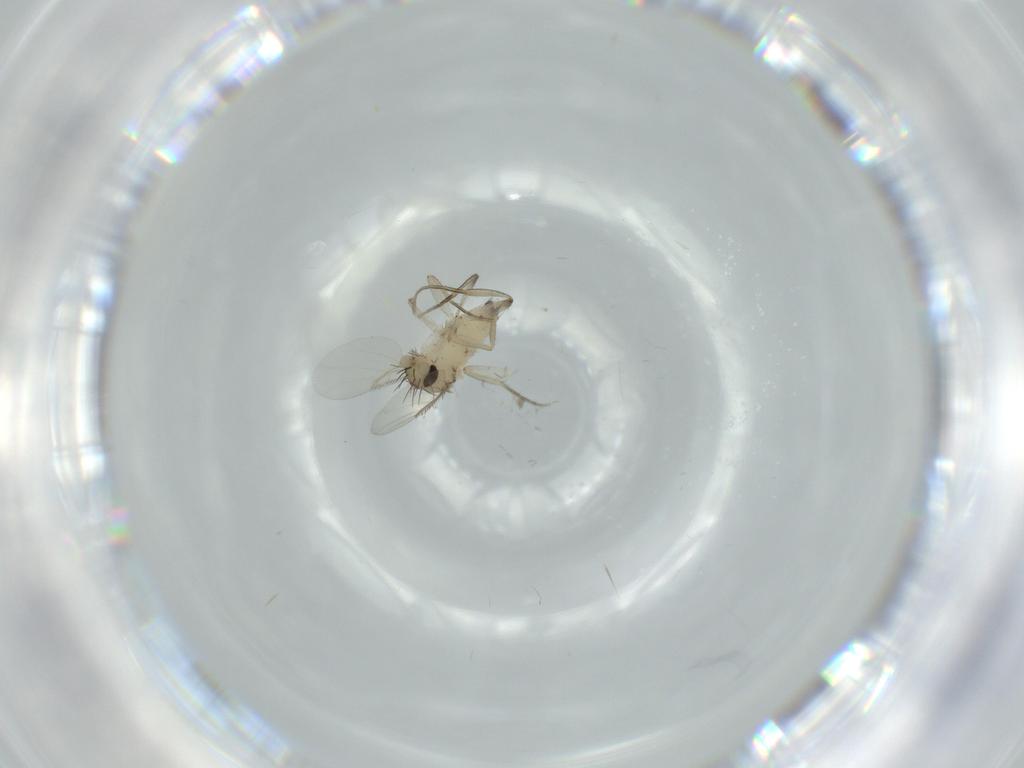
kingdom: Animalia
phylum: Arthropoda
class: Insecta
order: Diptera
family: Phoridae
